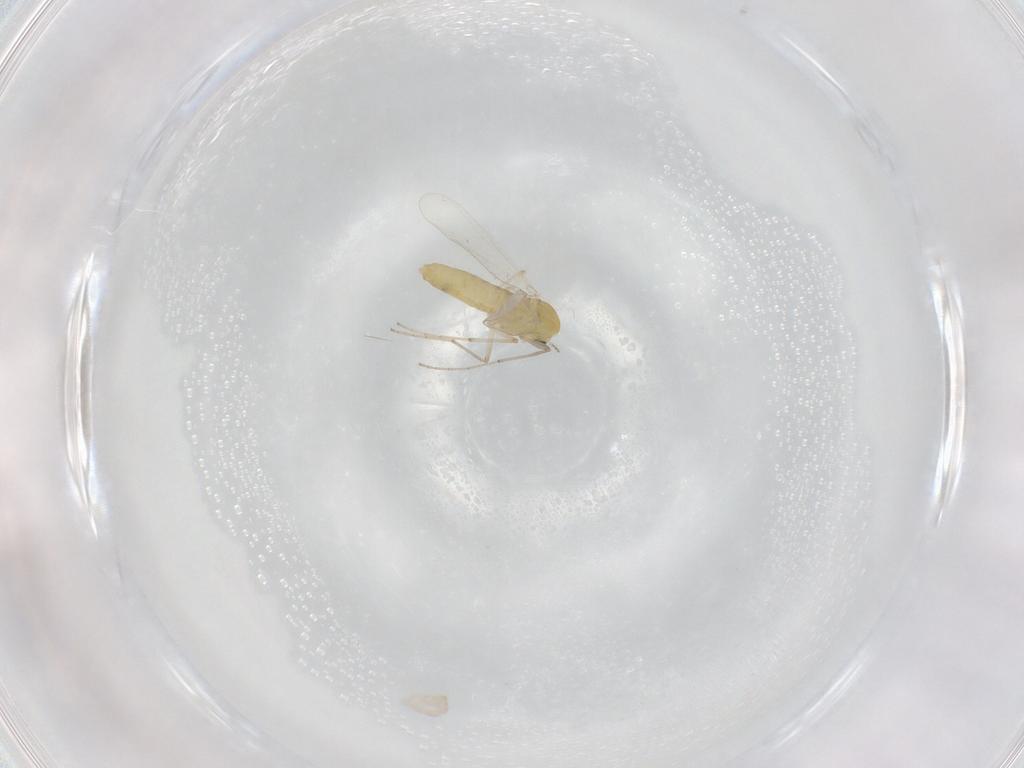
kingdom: Animalia
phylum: Arthropoda
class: Insecta
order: Diptera
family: Chironomidae
